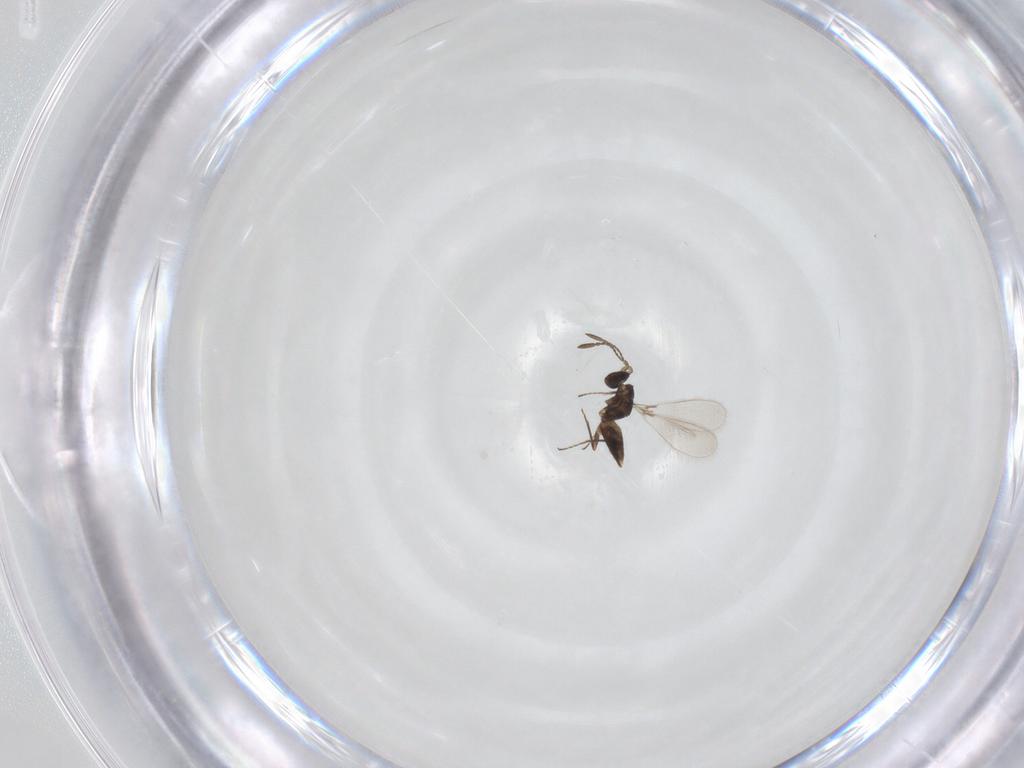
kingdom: Animalia
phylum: Arthropoda
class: Insecta
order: Hymenoptera
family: Mymaridae
